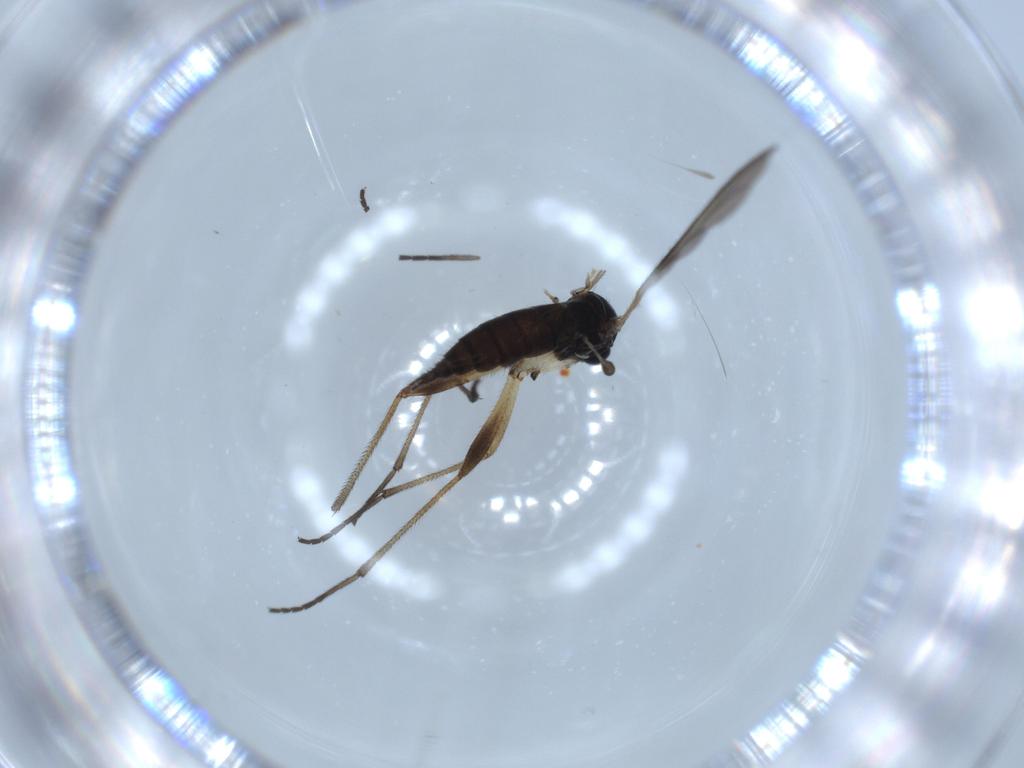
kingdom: Animalia
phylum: Arthropoda
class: Insecta
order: Diptera
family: Sciaridae
